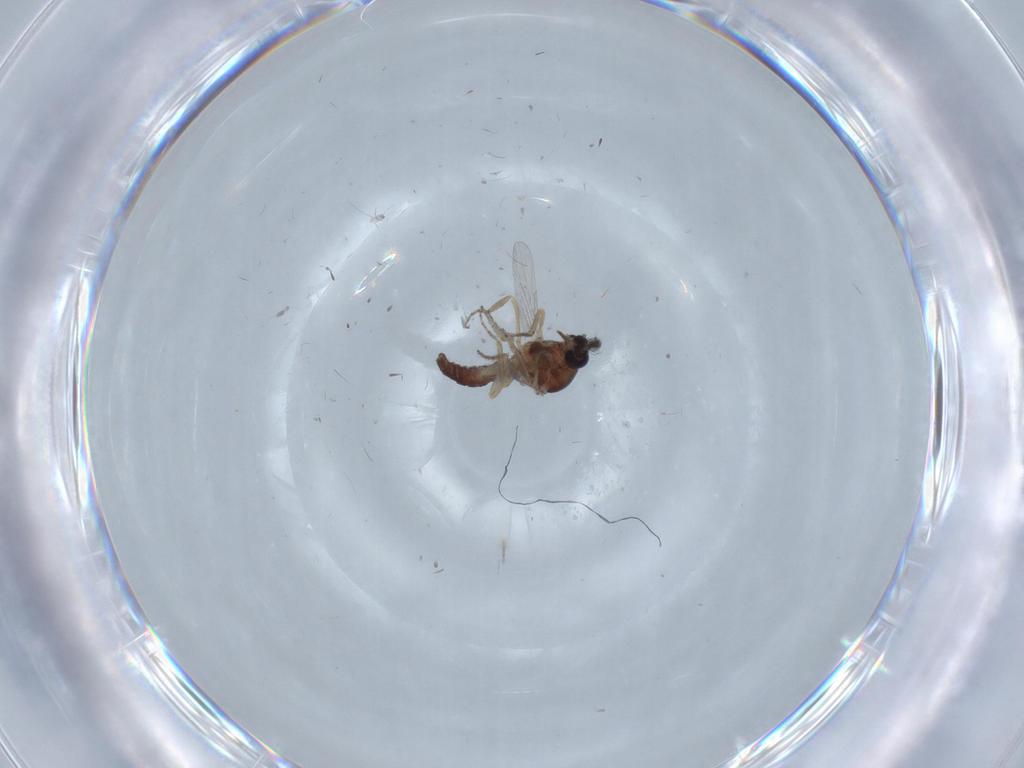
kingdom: Animalia
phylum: Arthropoda
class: Insecta
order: Diptera
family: Ceratopogonidae
